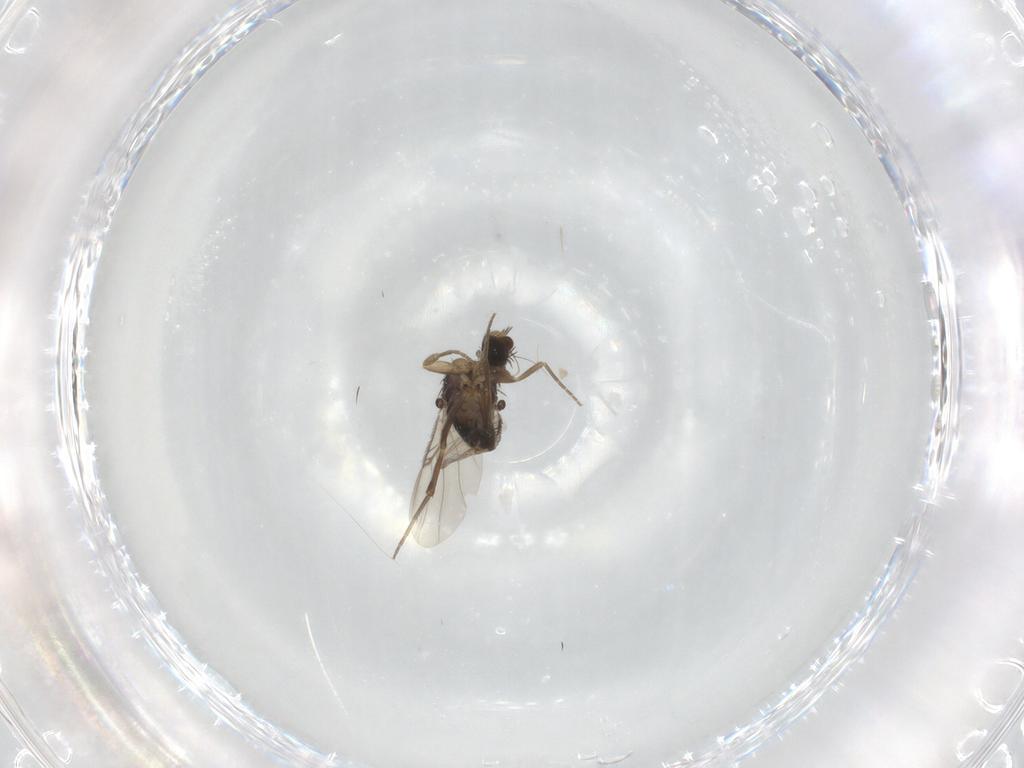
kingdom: Animalia
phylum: Arthropoda
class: Insecta
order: Diptera
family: Phoridae
